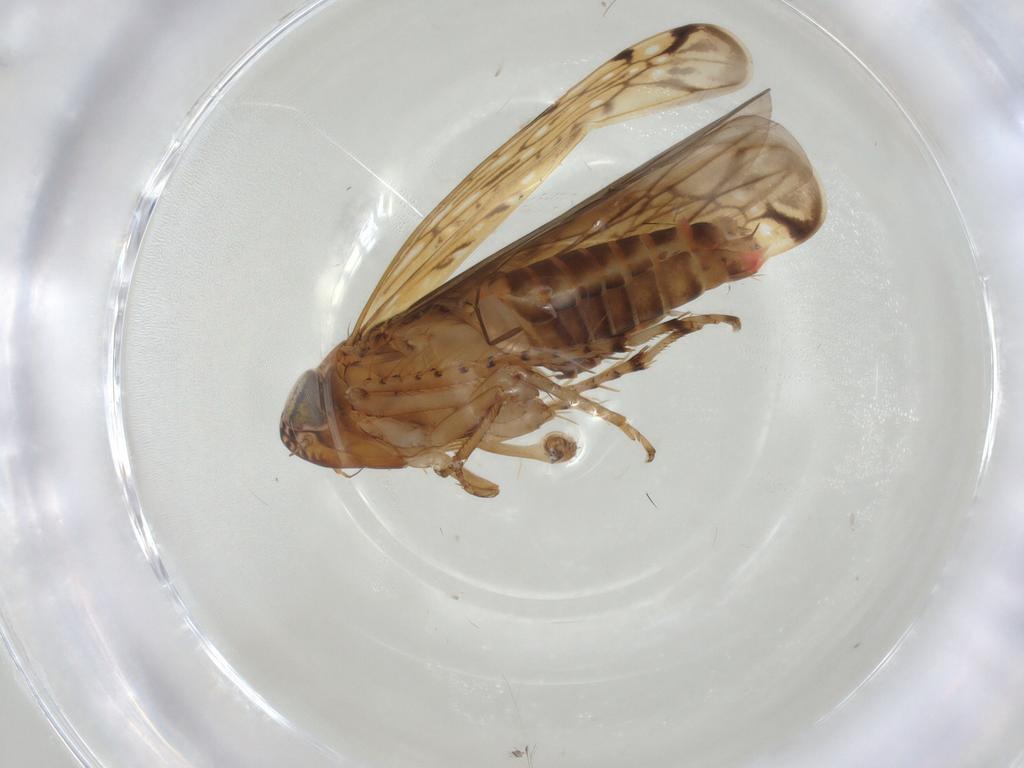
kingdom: Animalia
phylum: Arthropoda
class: Insecta
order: Hemiptera
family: Cicadellidae
